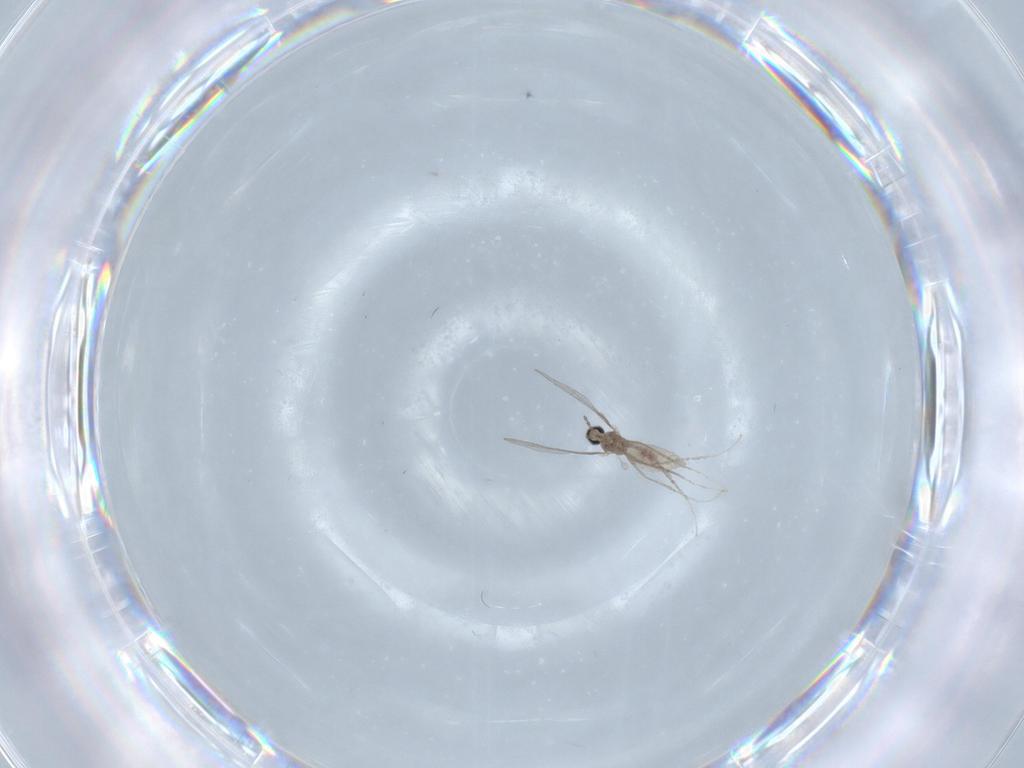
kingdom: Animalia
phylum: Arthropoda
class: Insecta
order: Diptera
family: Cecidomyiidae
